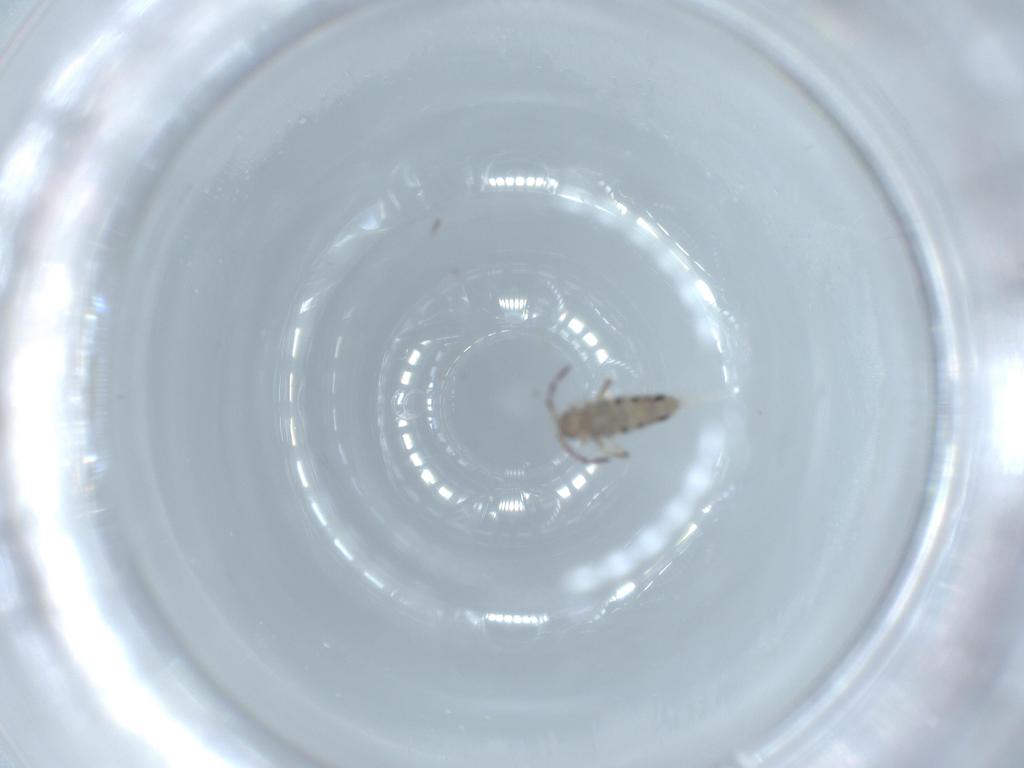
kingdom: Animalia
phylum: Arthropoda
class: Collembola
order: Entomobryomorpha
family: Entomobryidae
